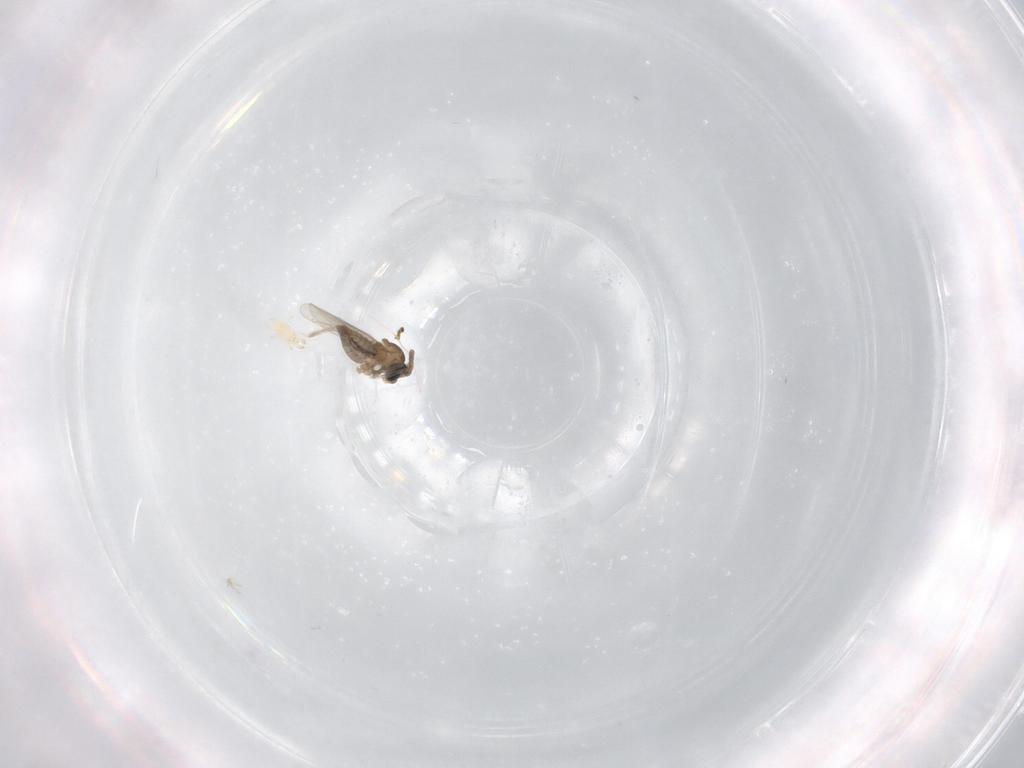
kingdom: Animalia
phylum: Arthropoda
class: Insecta
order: Diptera
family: Cecidomyiidae
